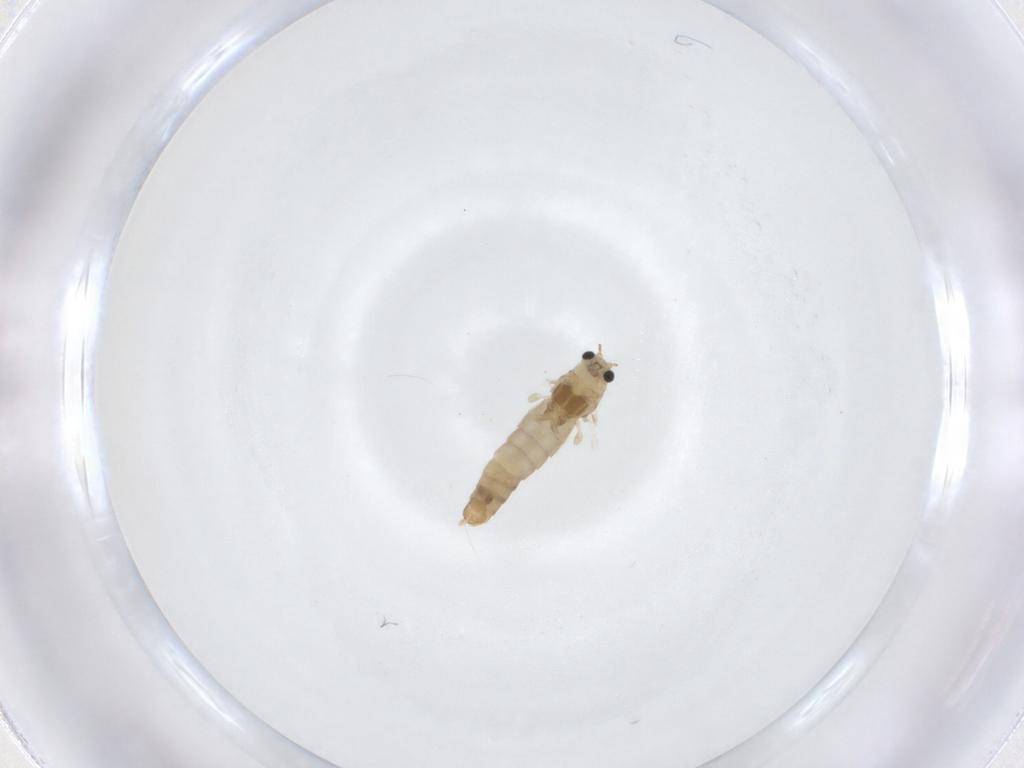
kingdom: Animalia
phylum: Arthropoda
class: Insecta
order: Diptera
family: Chironomidae
